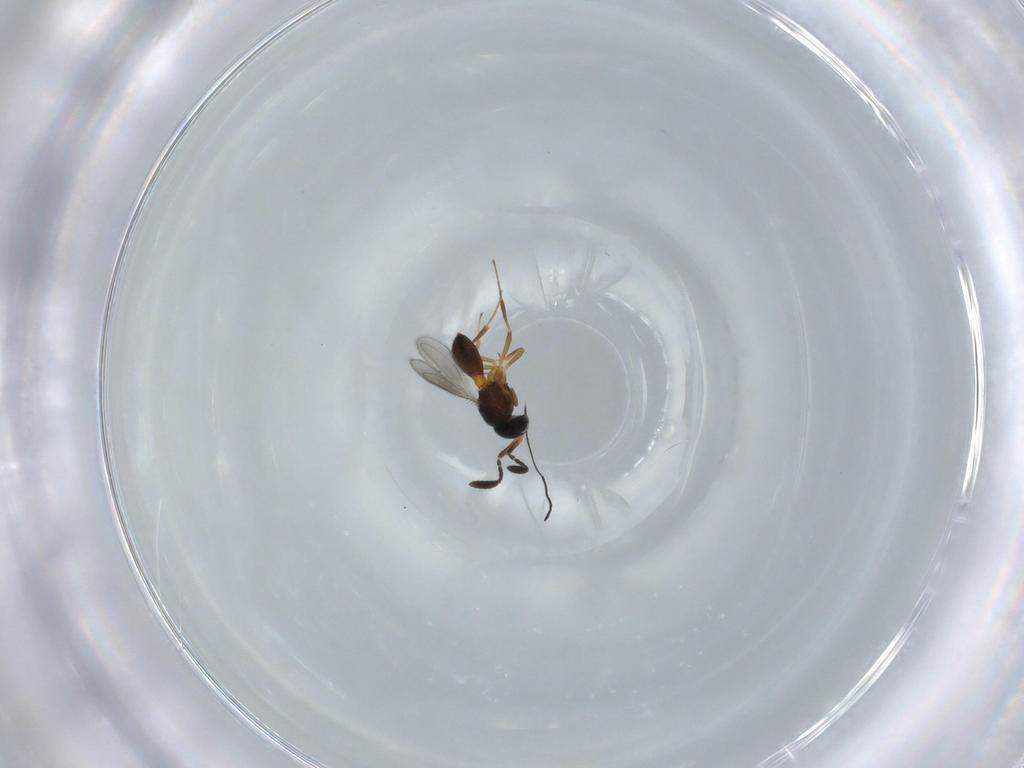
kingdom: Animalia
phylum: Arthropoda
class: Insecta
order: Hymenoptera
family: Scelionidae
